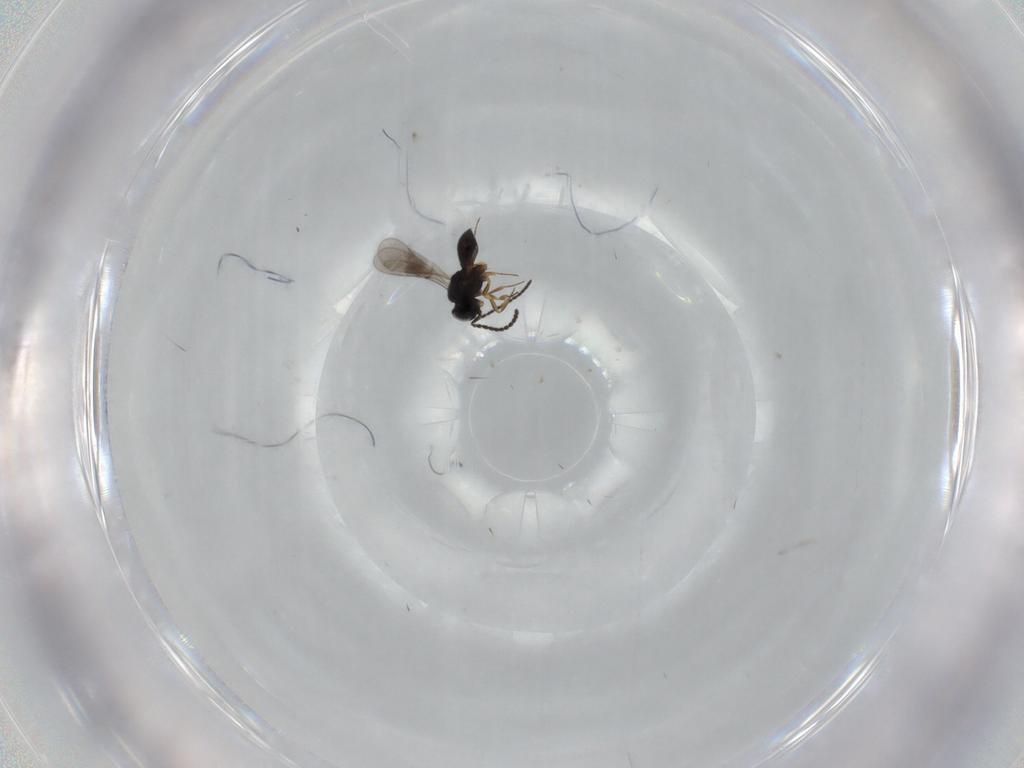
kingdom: Animalia
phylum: Arthropoda
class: Insecta
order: Hymenoptera
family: Scelionidae
